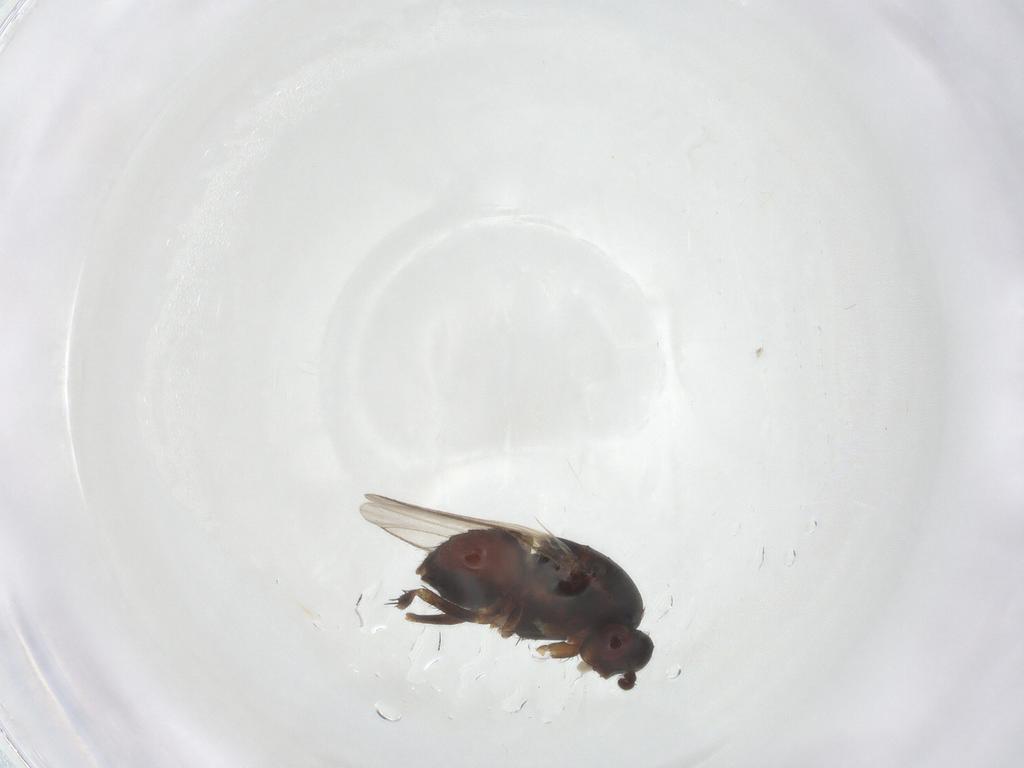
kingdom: Animalia
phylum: Arthropoda
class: Insecta
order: Diptera
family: Sphaeroceridae
